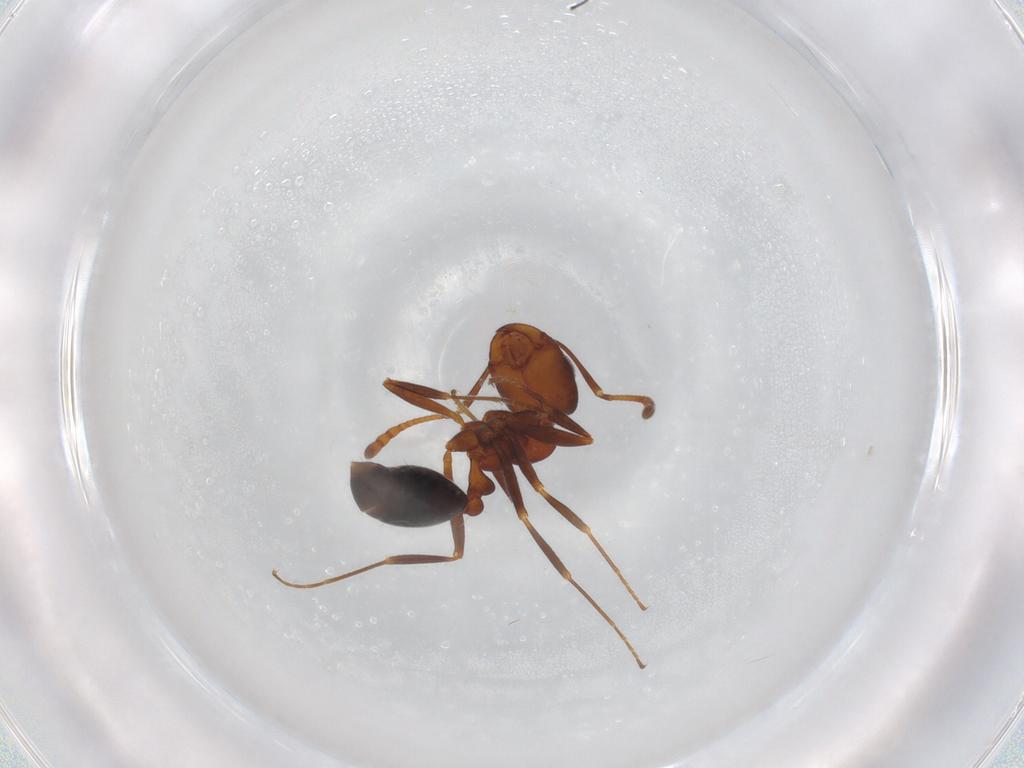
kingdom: Animalia
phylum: Arthropoda
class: Insecta
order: Hymenoptera
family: Formicidae
